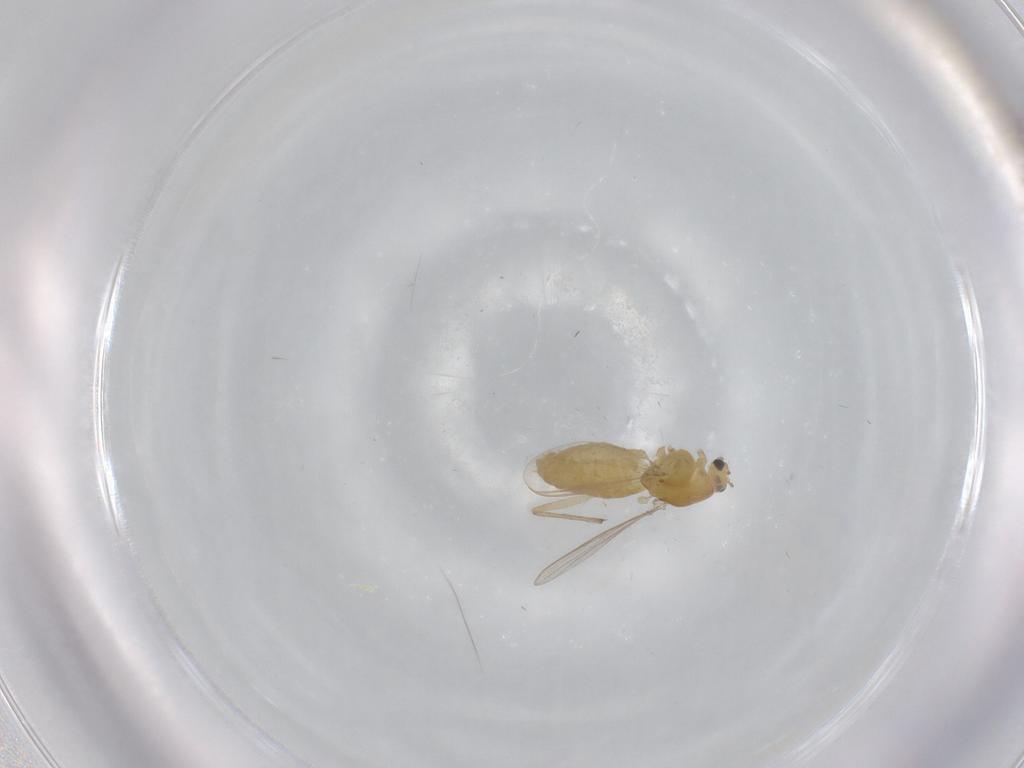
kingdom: Animalia
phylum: Arthropoda
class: Insecta
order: Diptera
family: Chironomidae
